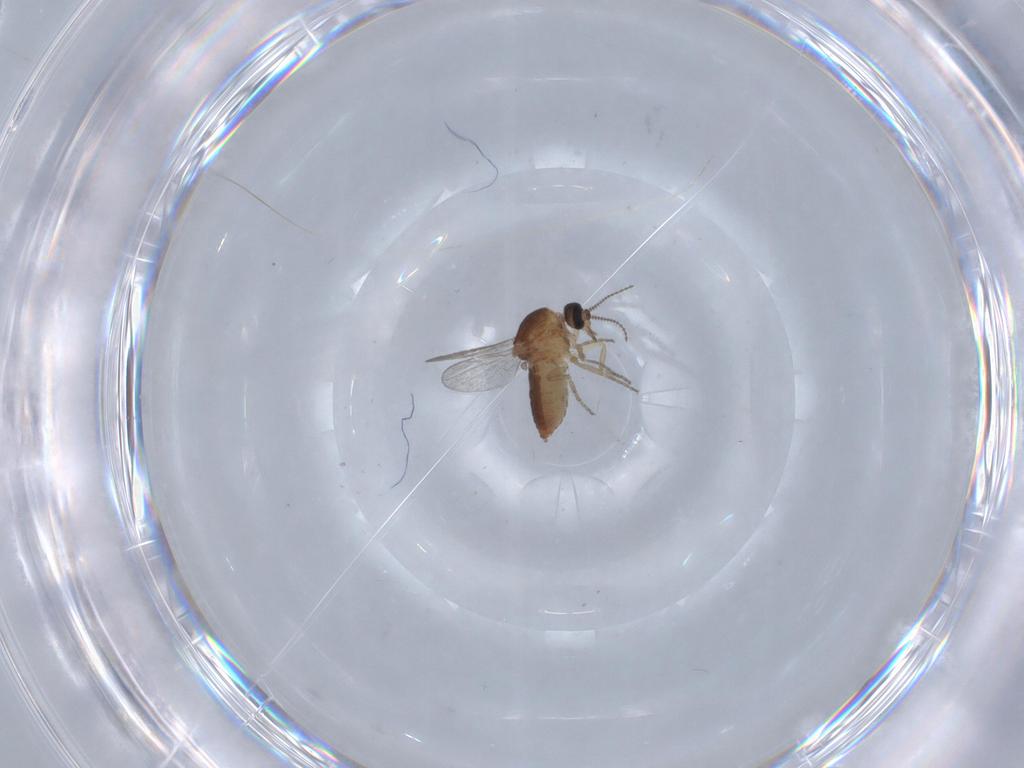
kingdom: Animalia
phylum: Arthropoda
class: Insecta
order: Diptera
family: Ceratopogonidae
